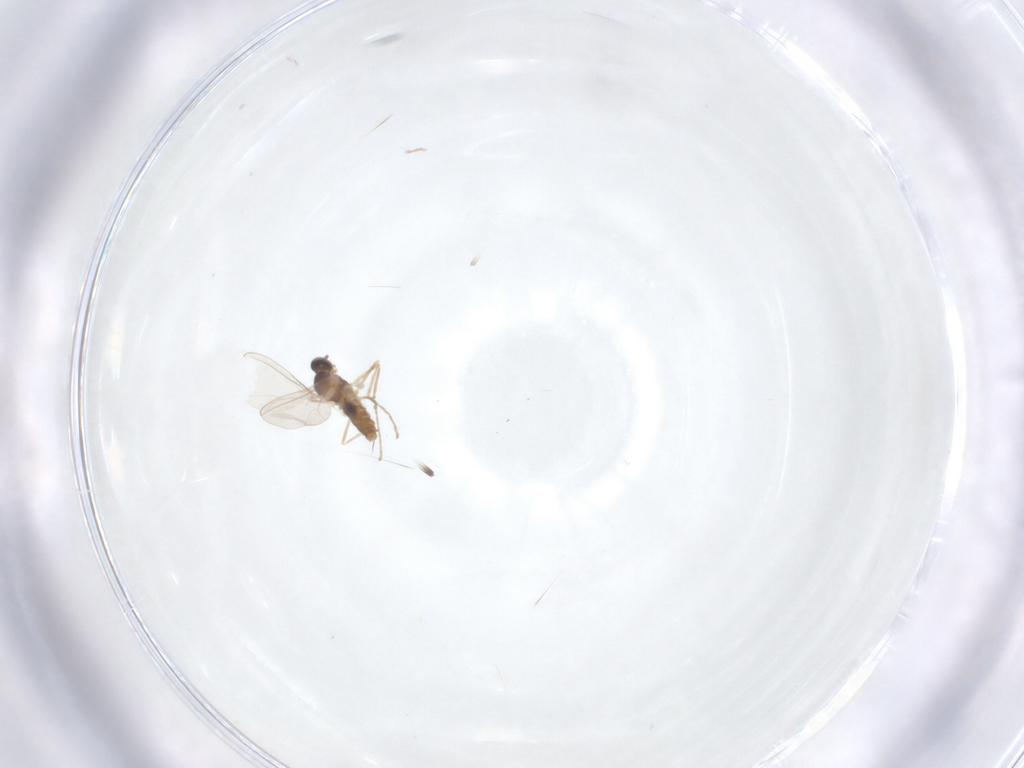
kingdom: Animalia
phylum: Arthropoda
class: Insecta
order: Diptera
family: Cecidomyiidae
